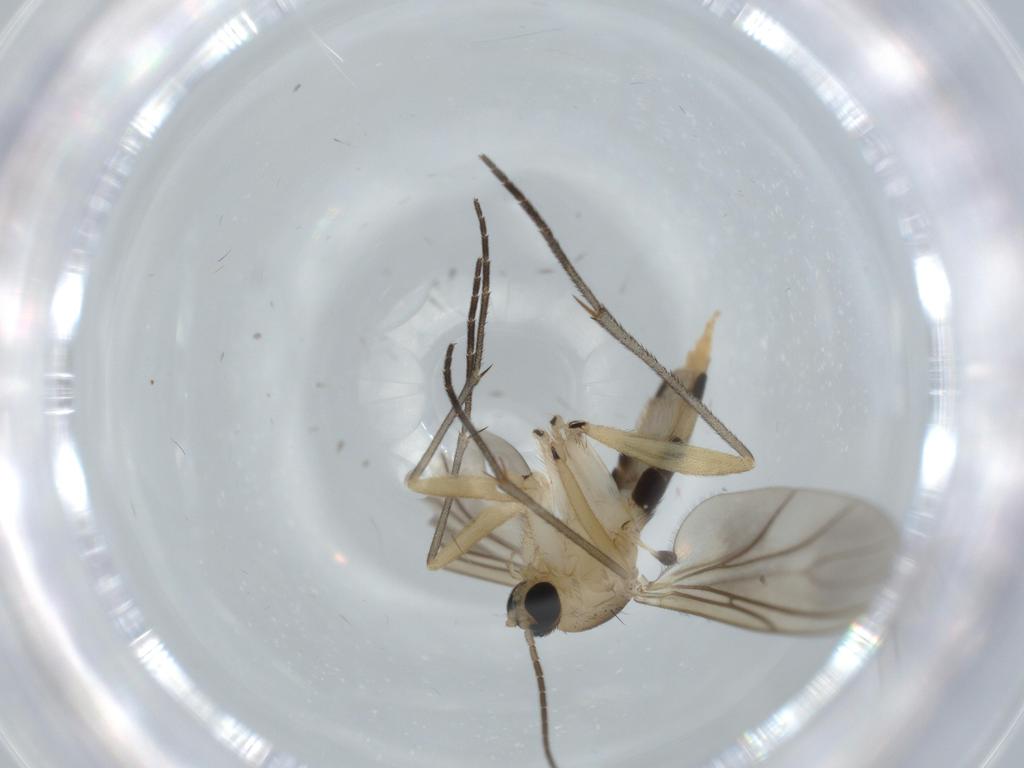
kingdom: Animalia
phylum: Arthropoda
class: Insecta
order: Diptera
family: Sciaridae
